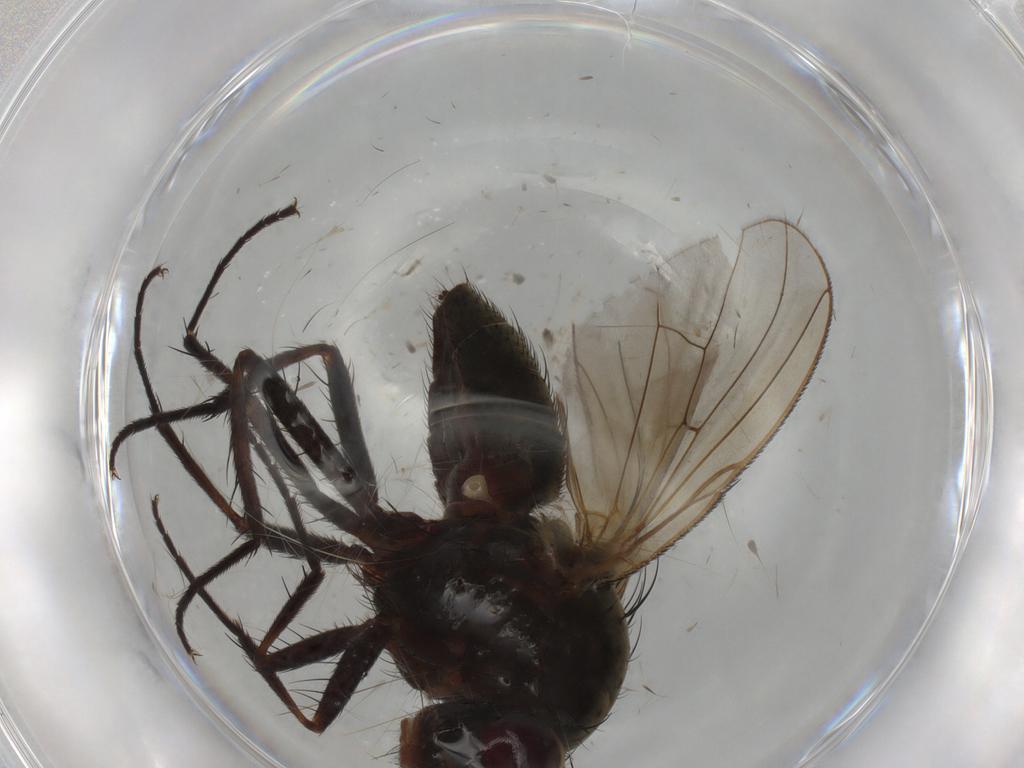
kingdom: Animalia
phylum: Arthropoda
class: Insecta
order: Diptera
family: Anthomyiidae
